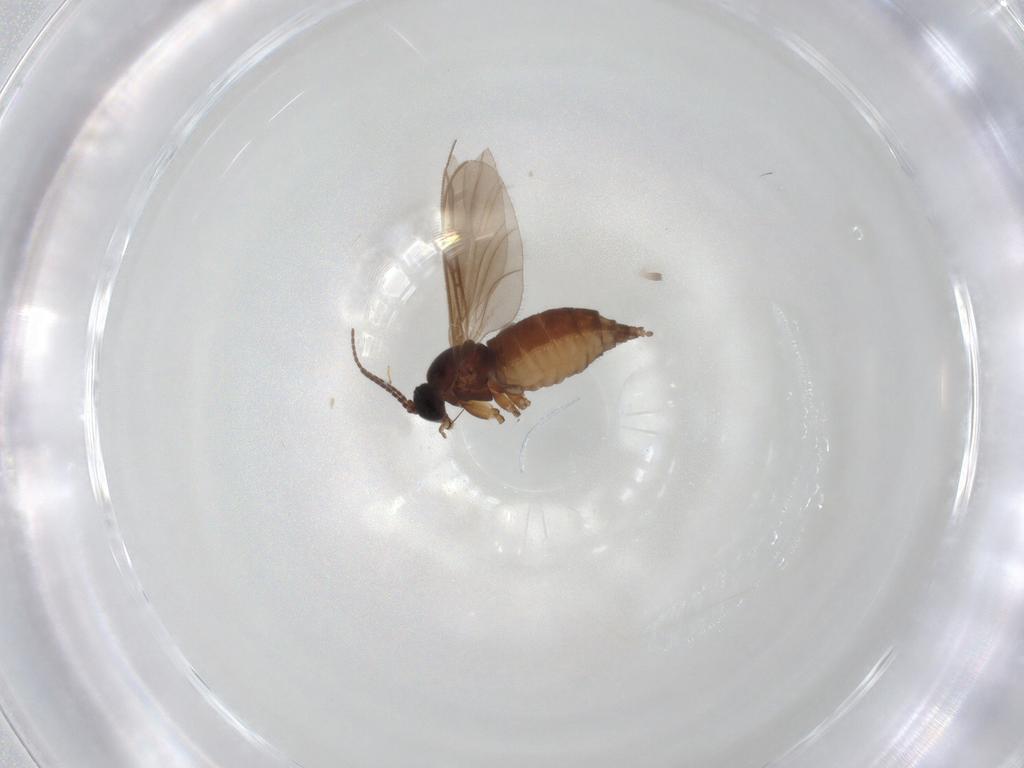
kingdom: Animalia
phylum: Arthropoda
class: Insecta
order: Diptera
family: Sciaridae
